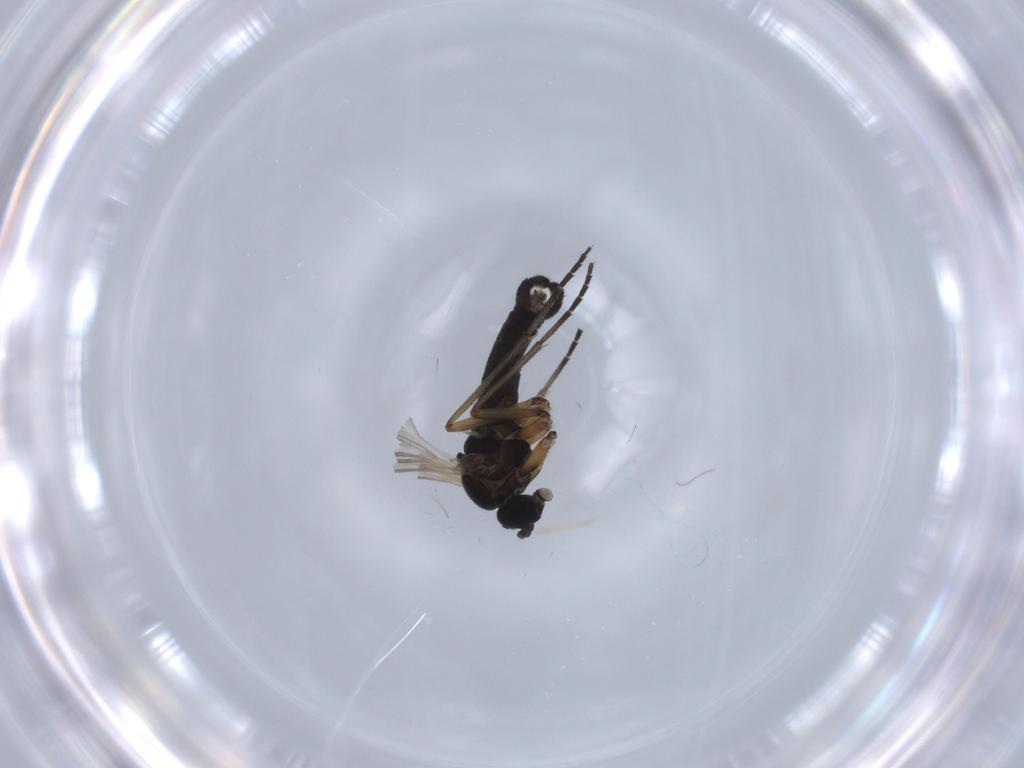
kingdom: Animalia
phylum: Arthropoda
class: Insecta
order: Diptera
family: Sciaridae
